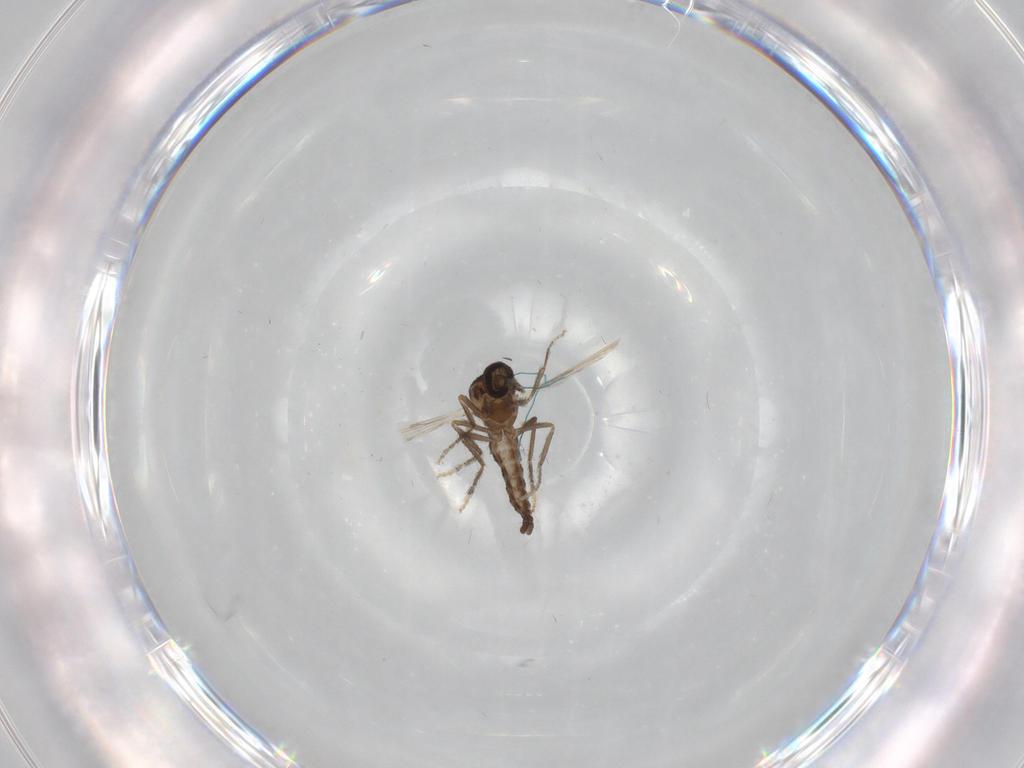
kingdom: Animalia
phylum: Arthropoda
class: Insecta
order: Diptera
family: Ceratopogonidae
